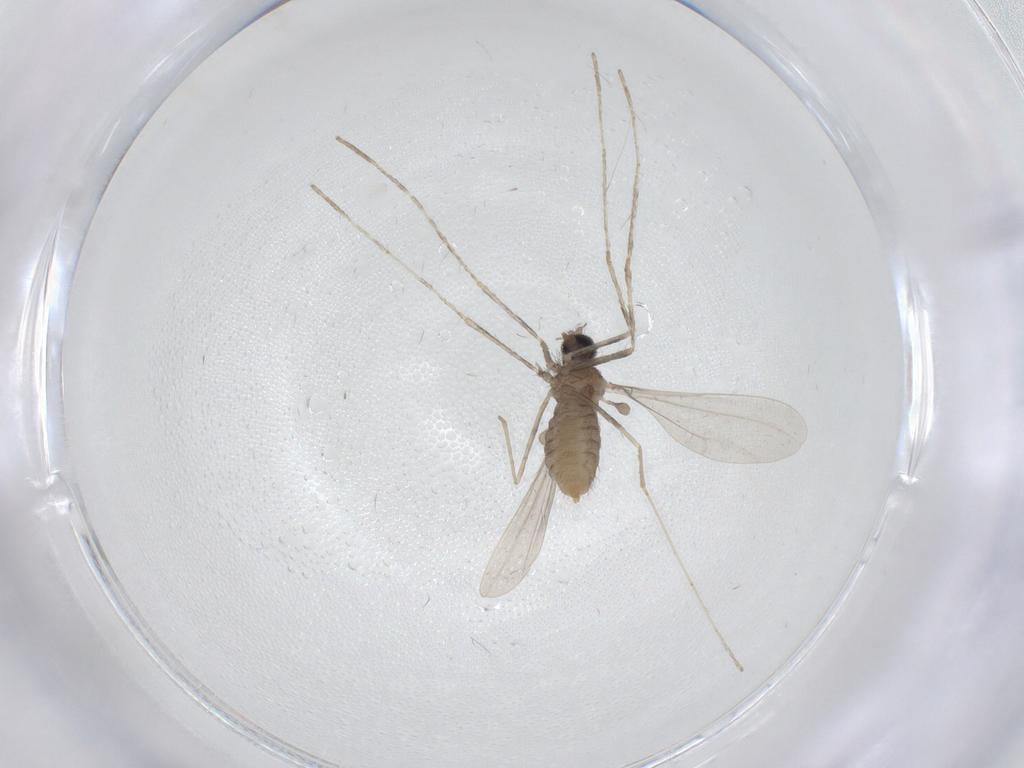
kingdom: Animalia
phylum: Arthropoda
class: Insecta
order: Diptera
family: Cecidomyiidae
